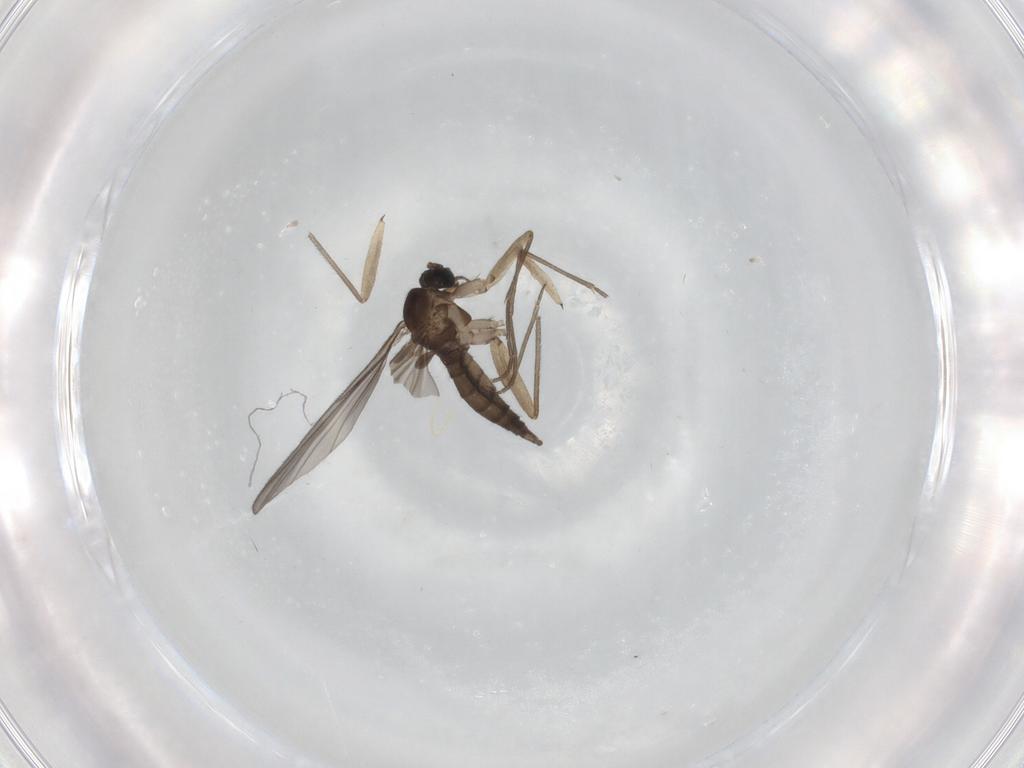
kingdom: Animalia
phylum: Arthropoda
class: Insecta
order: Diptera
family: Sciaridae
